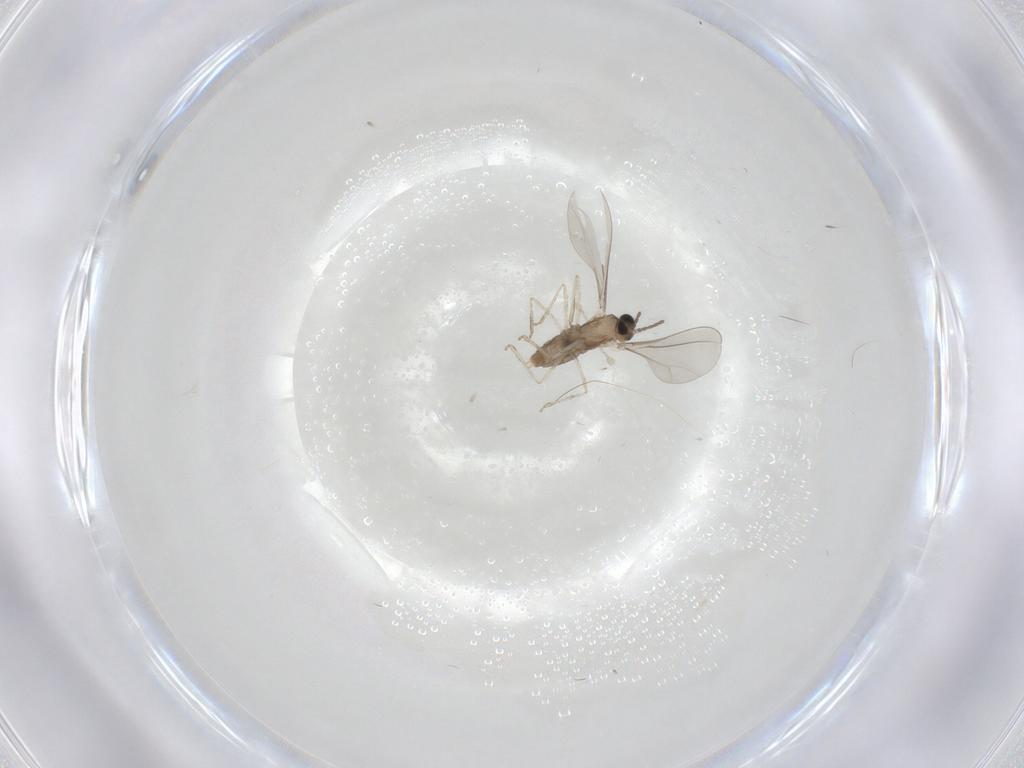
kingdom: Animalia
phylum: Arthropoda
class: Insecta
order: Diptera
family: Cecidomyiidae
